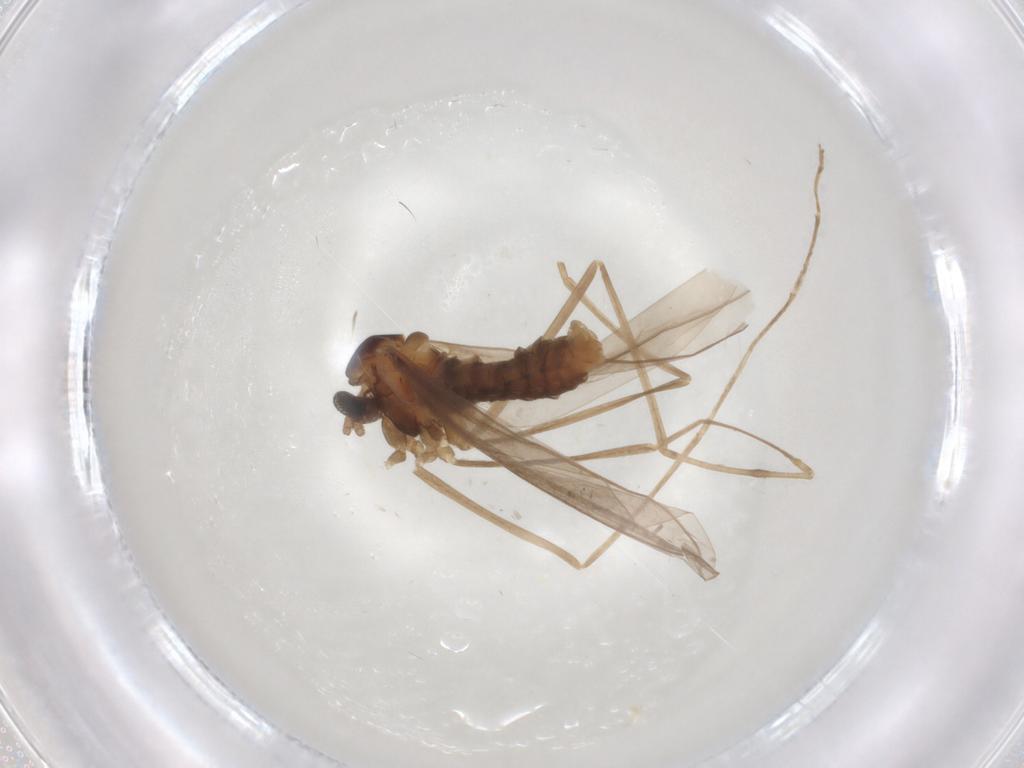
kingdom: Animalia
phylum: Arthropoda
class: Insecta
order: Diptera
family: Cecidomyiidae
